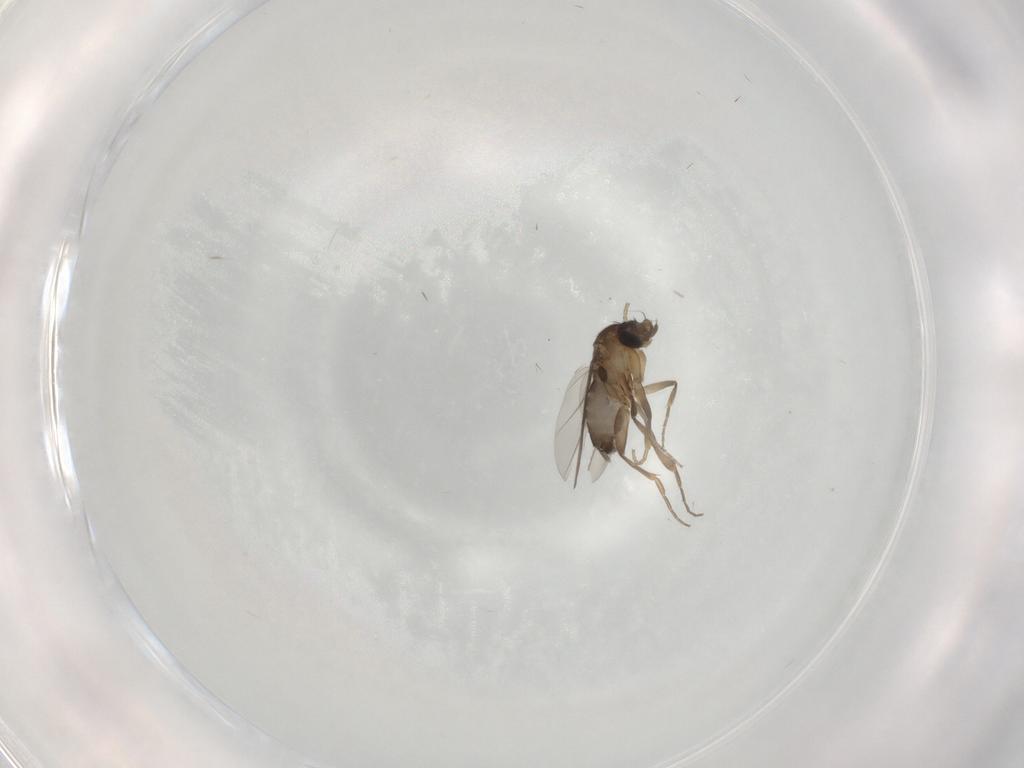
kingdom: Animalia
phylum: Arthropoda
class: Insecta
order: Diptera
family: Phoridae
